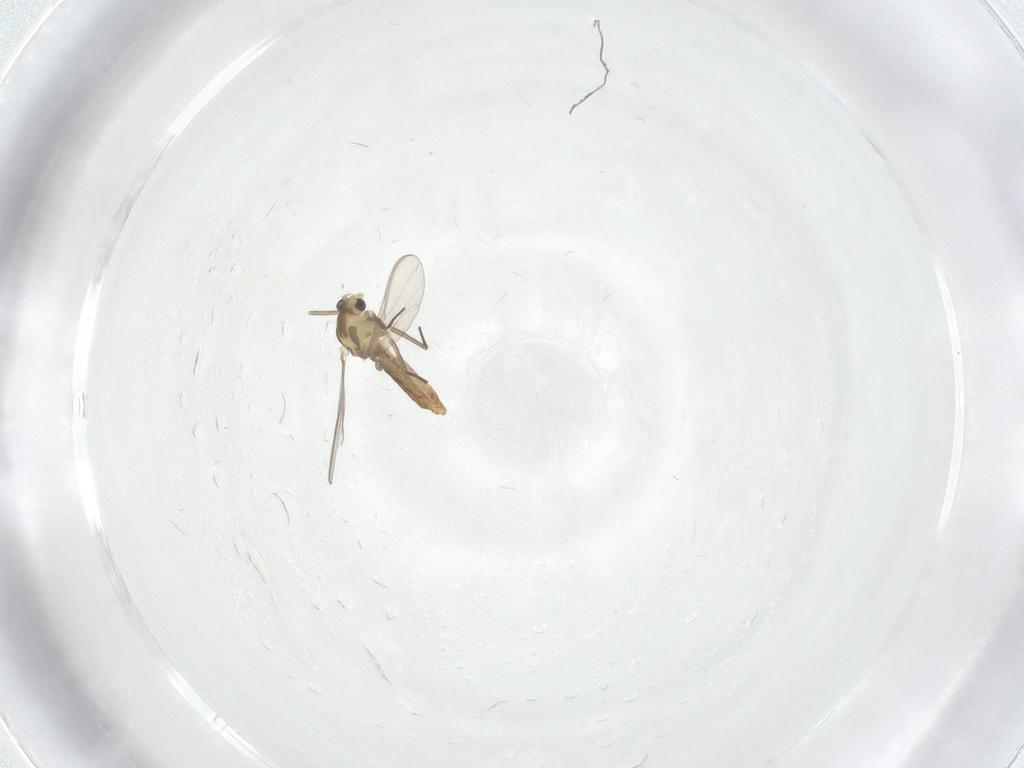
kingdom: Animalia
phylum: Arthropoda
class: Insecta
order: Diptera
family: Chironomidae
